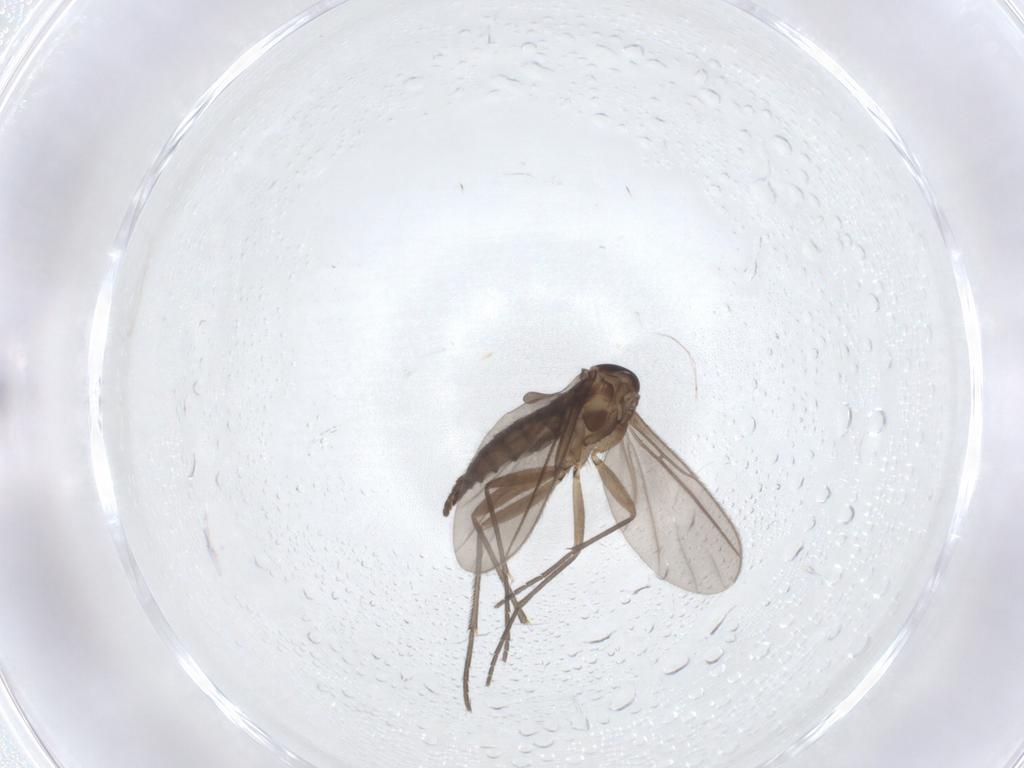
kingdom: Animalia
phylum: Arthropoda
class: Insecta
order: Diptera
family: Sciaridae
